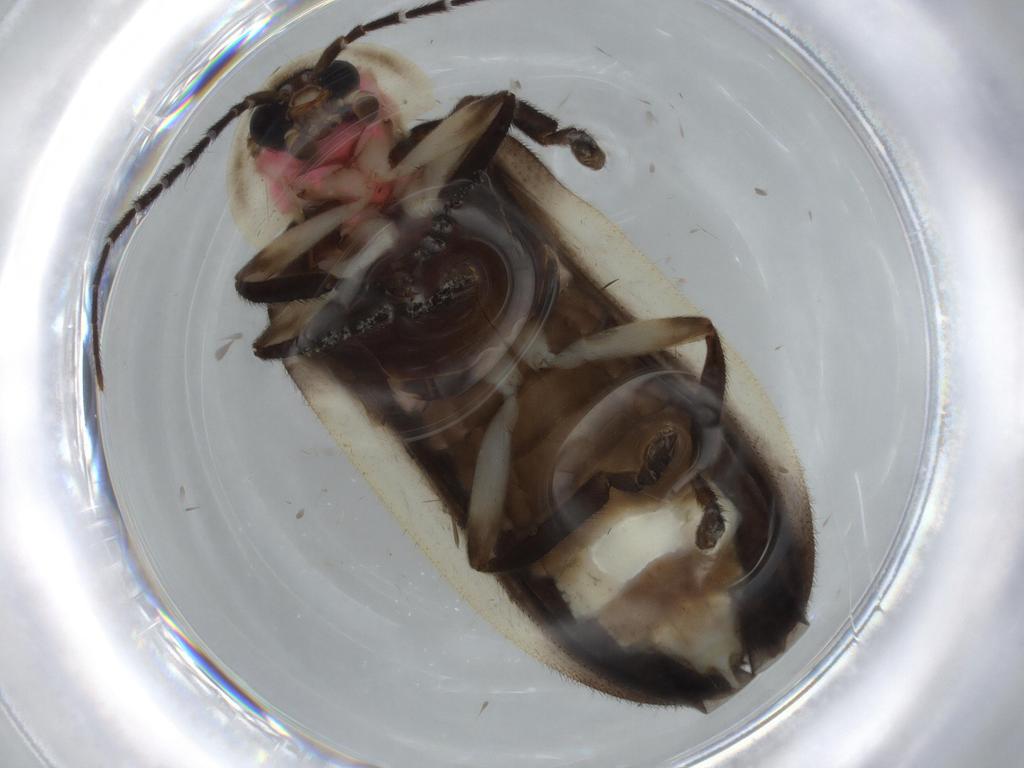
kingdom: Animalia
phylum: Arthropoda
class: Insecta
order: Coleoptera
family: Lampyridae
